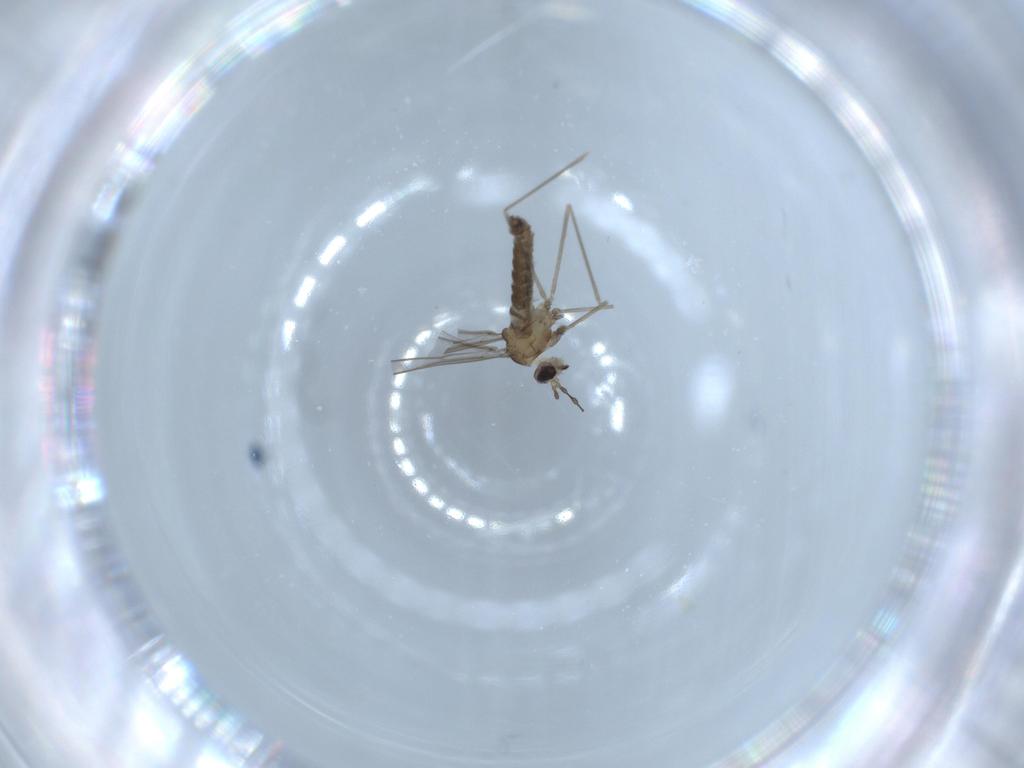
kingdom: Animalia
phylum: Arthropoda
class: Insecta
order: Diptera
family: Cecidomyiidae
